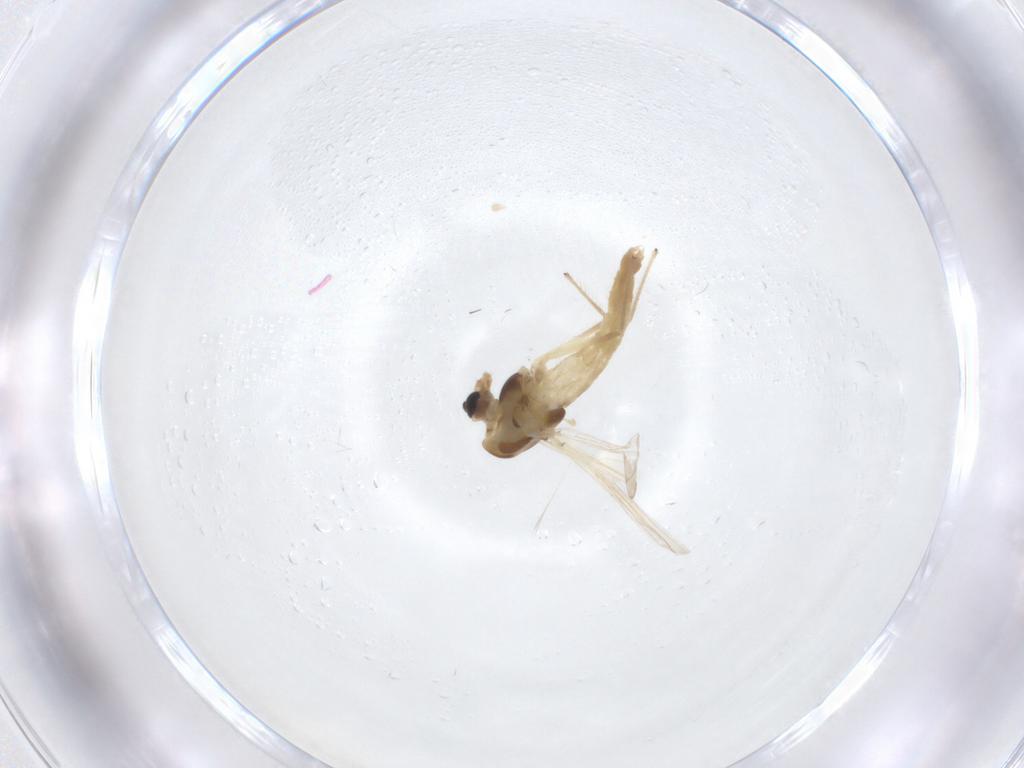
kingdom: Animalia
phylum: Arthropoda
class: Insecta
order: Diptera
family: Chironomidae
